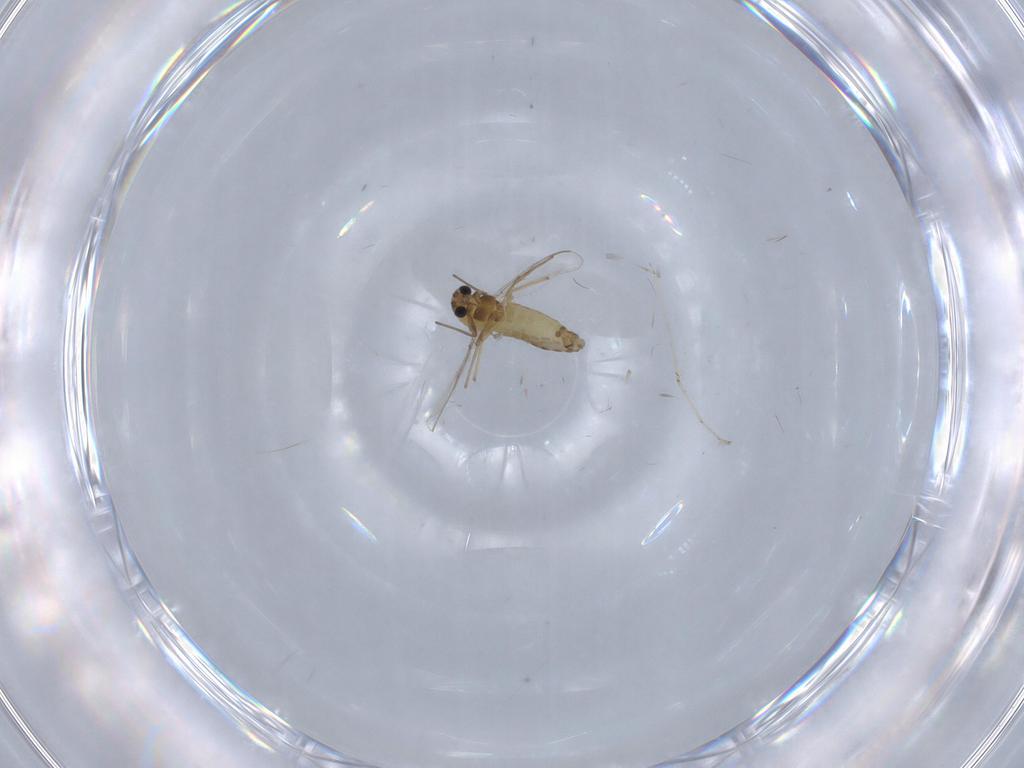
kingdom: Animalia
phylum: Arthropoda
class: Insecta
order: Diptera
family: Chironomidae
